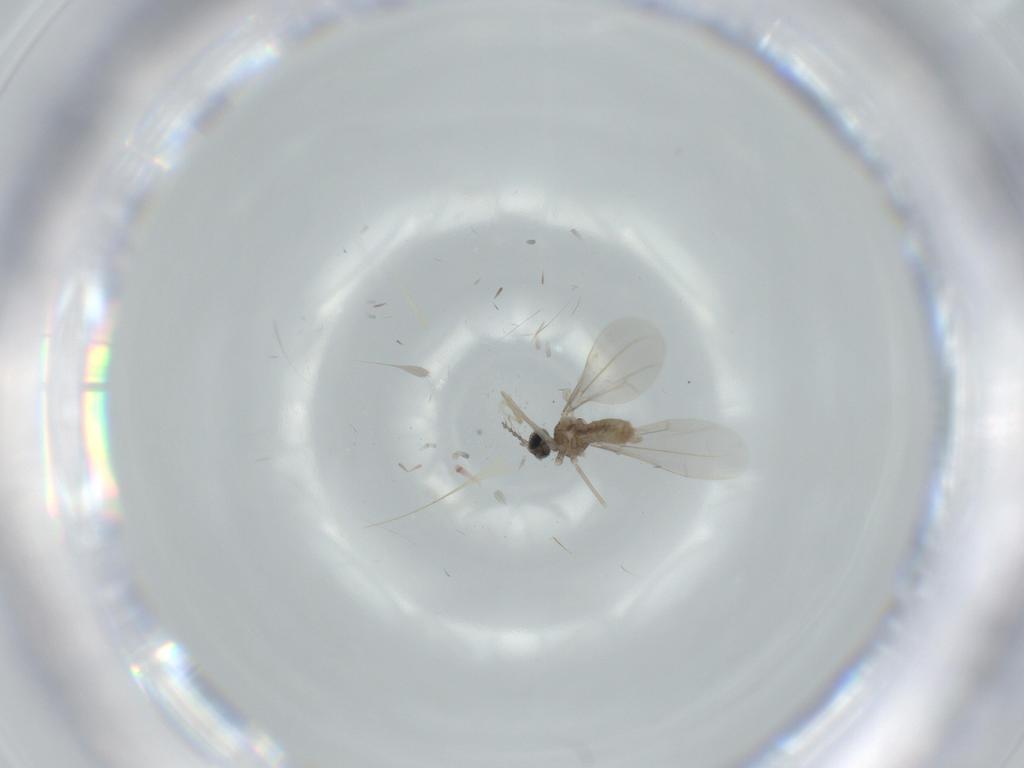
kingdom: Animalia
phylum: Arthropoda
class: Insecta
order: Diptera
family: Cecidomyiidae
